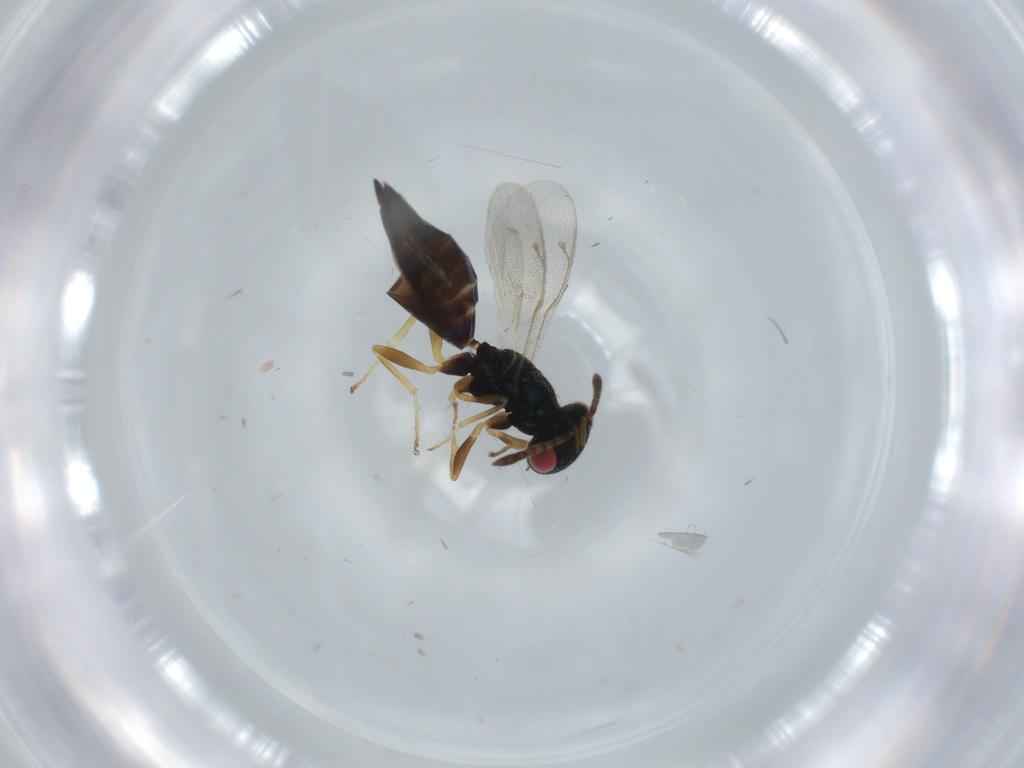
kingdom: Animalia
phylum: Arthropoda
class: Insecta
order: Hymenoptera
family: Pteromalidae
